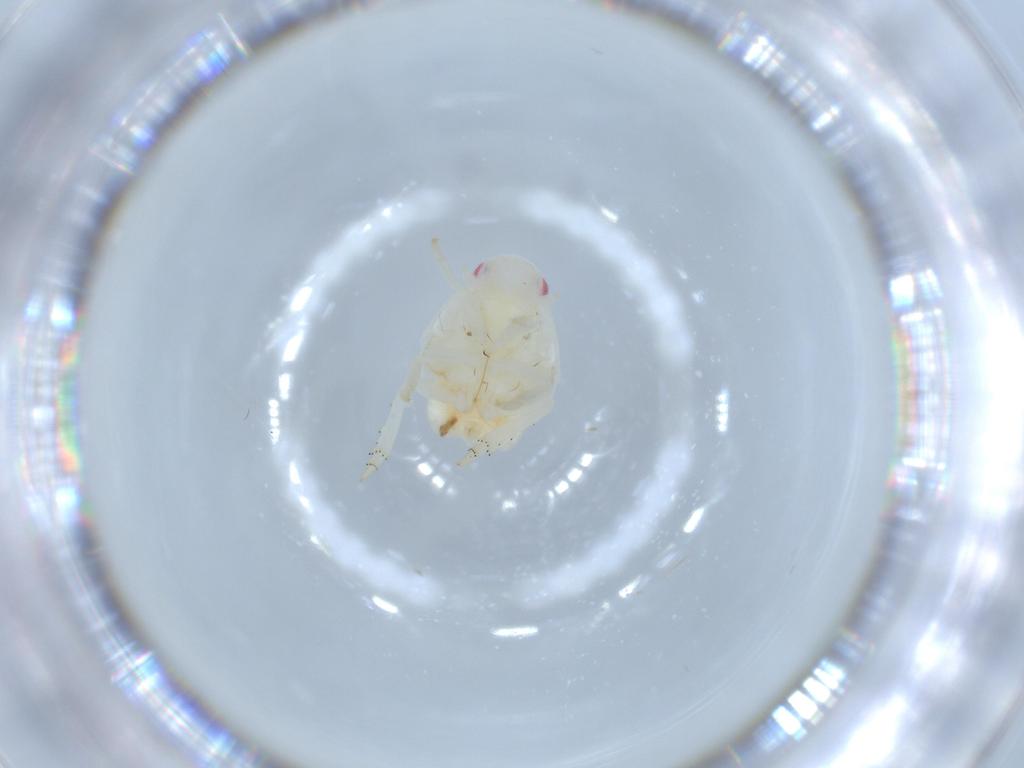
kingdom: Animalia
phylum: Arthropoda
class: Insecta
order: Hemiptera
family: Flatidae
